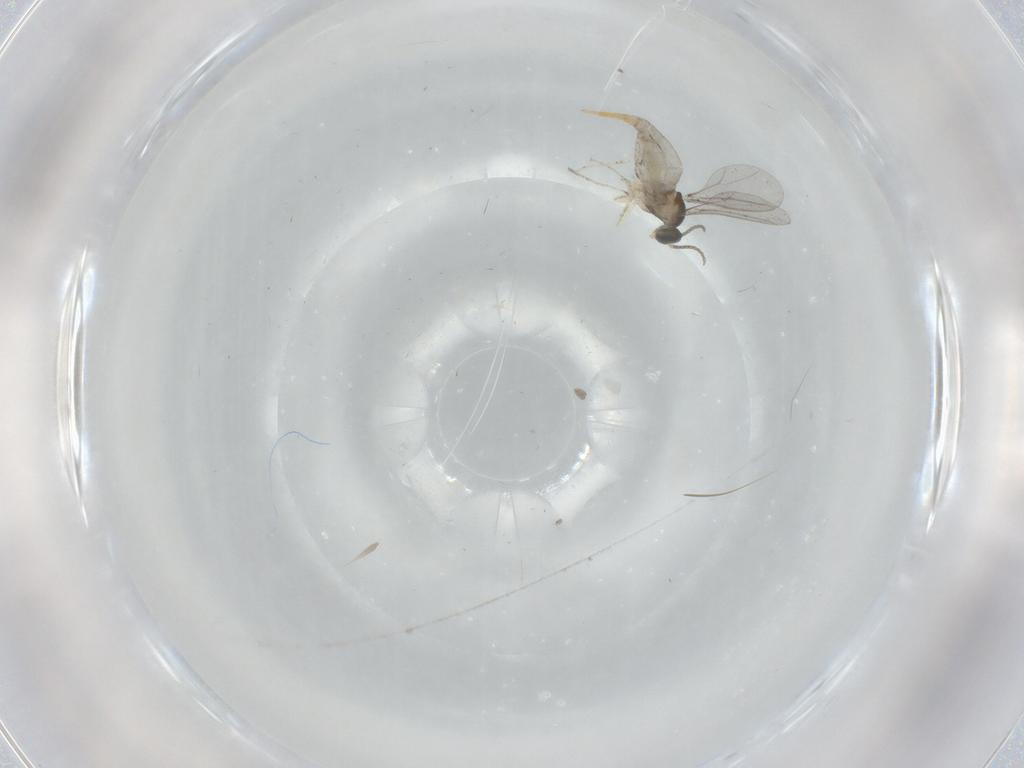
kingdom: Animalia
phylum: Arthropoda
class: Insecta
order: Diptera
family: Cecidomyiidae
